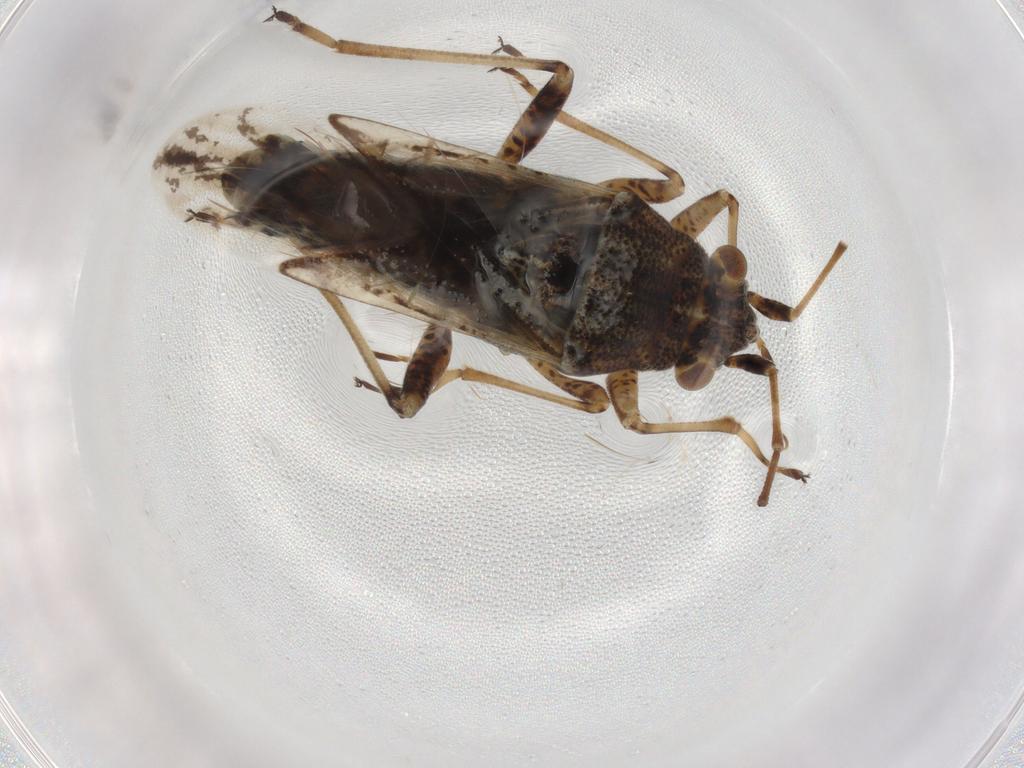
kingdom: Animalia
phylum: Arthropoda
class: Insecta
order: Hemiptera
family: Lygaeidae
